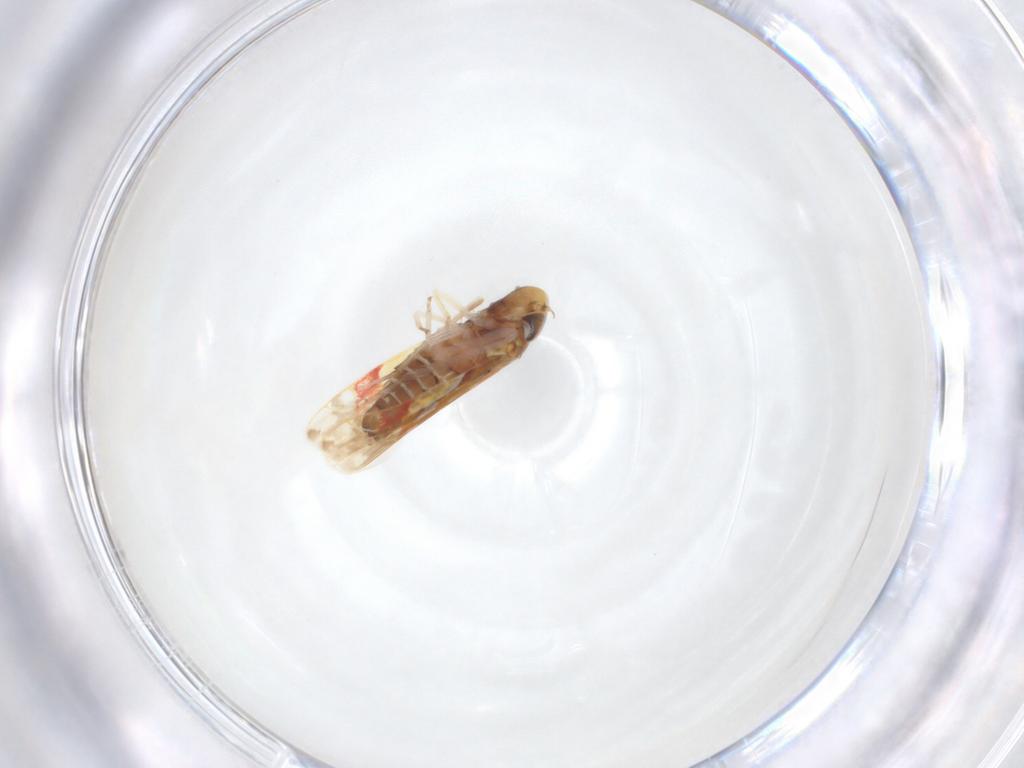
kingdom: Animalia
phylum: Arthropoda
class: Insecta
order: Hemiptera
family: Cicadellidae
